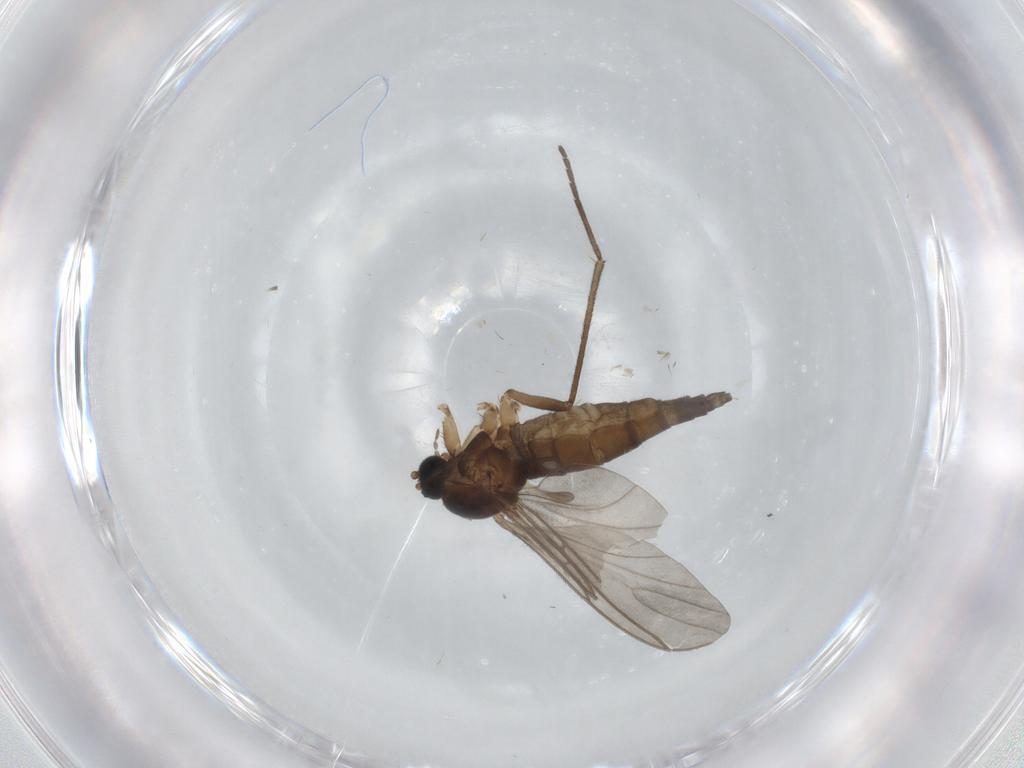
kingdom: Animalia
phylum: Arthropoda
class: Insecta
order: Diptera
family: Sciaridae
